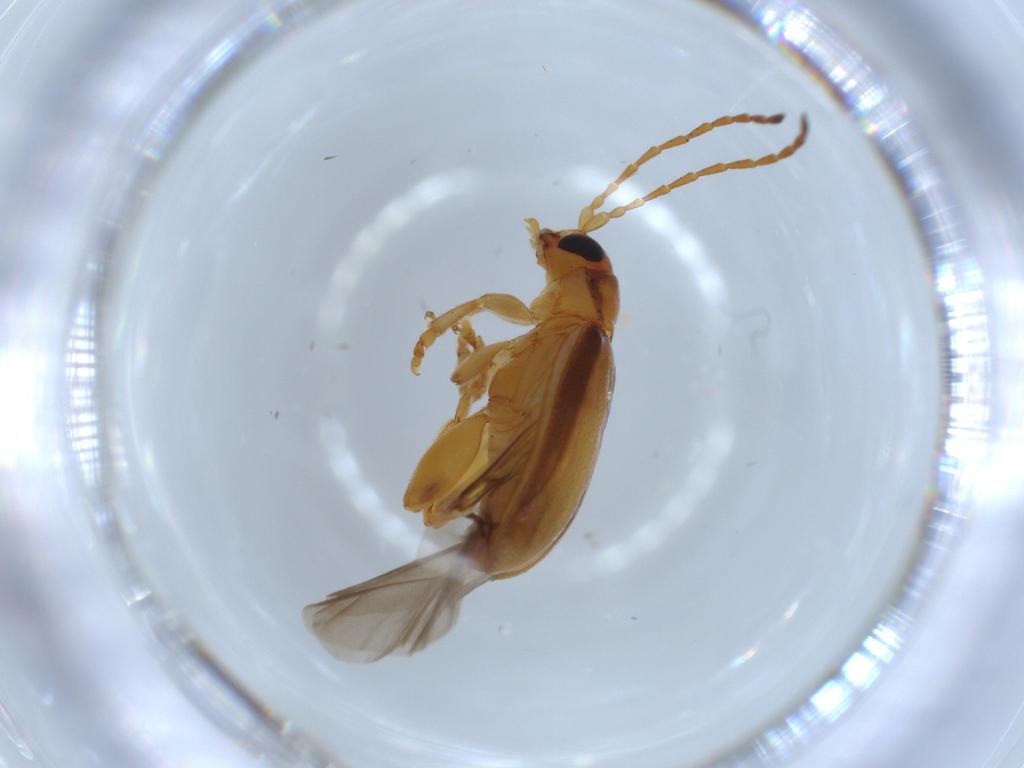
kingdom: Animalia
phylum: Arthropoda
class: Insecta
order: Coleoptera
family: Chrysomelidae
